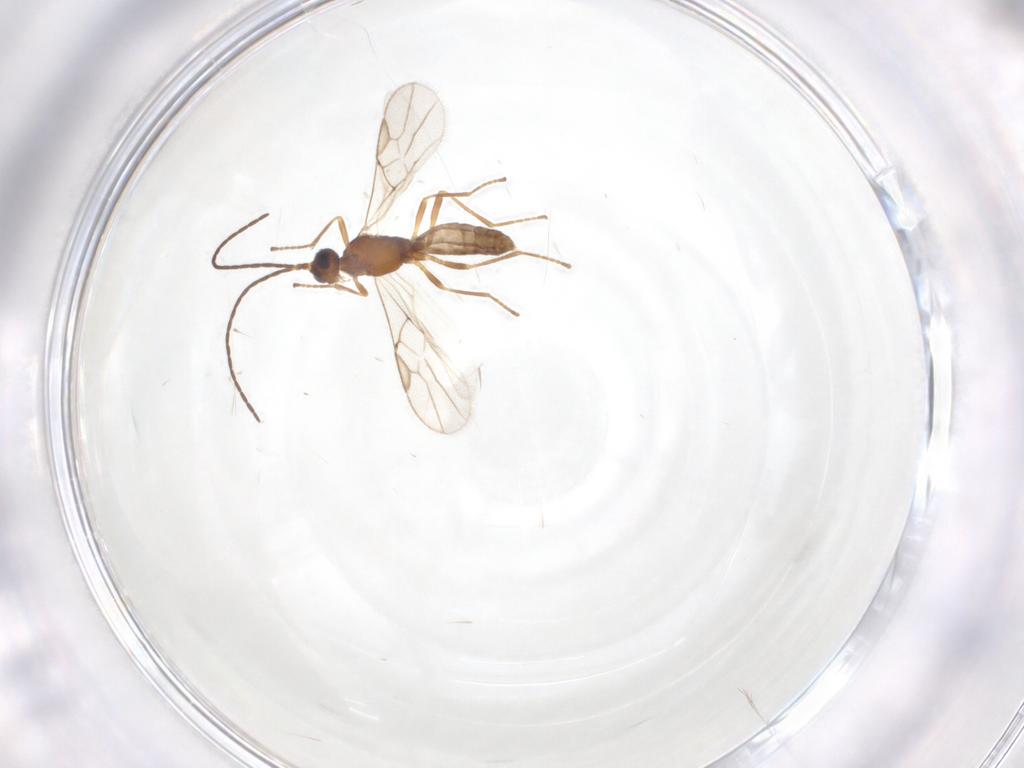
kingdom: Animalia
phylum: Arthropoda
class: Insecta
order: Hymenoptera
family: Braconidae
